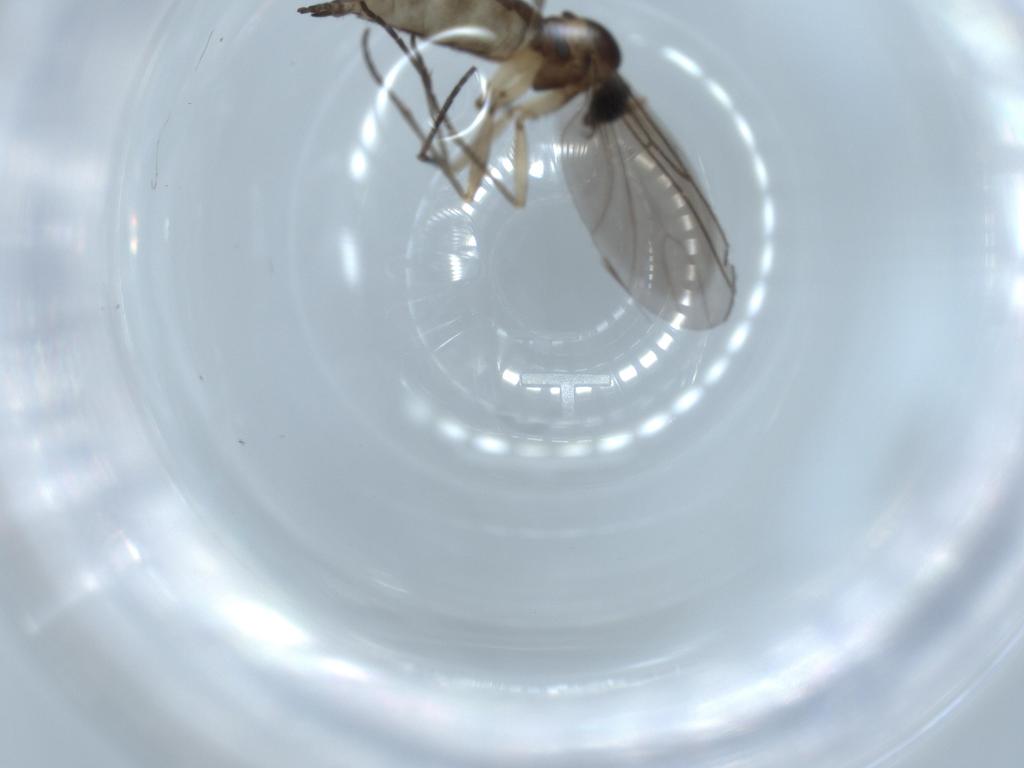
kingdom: Animalia
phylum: Arthropoda
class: Insecta
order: Diptera
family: Sciaridae
